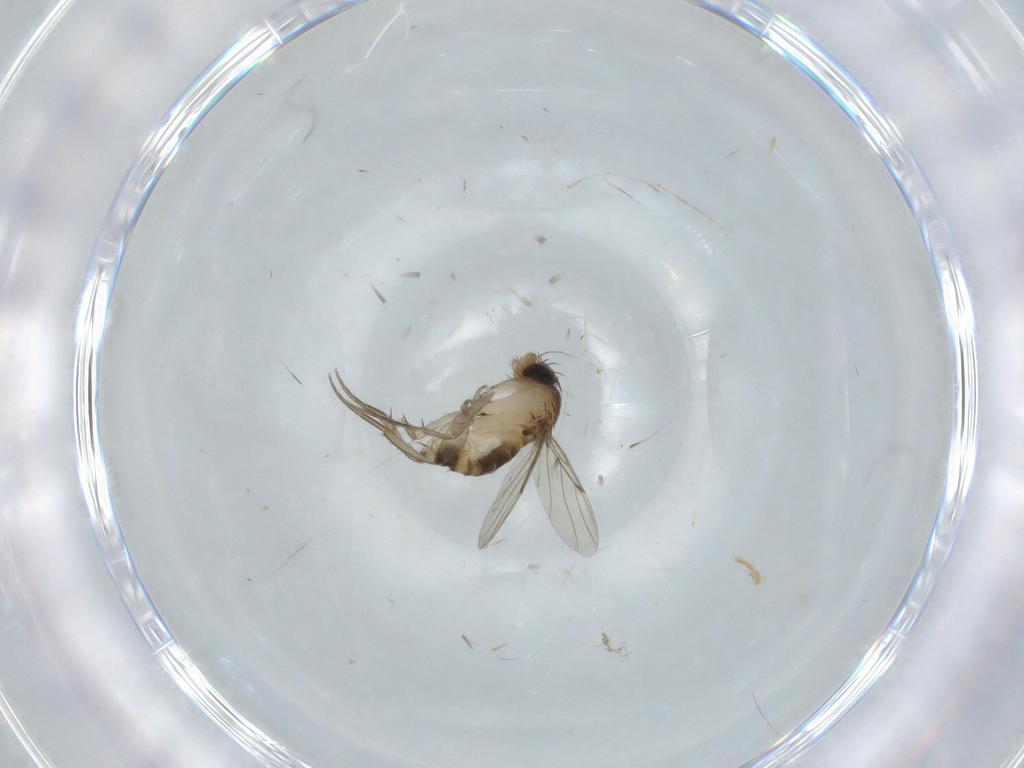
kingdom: Animalia
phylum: Arthropoda
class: Insecta
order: Diptera
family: Phoridae
